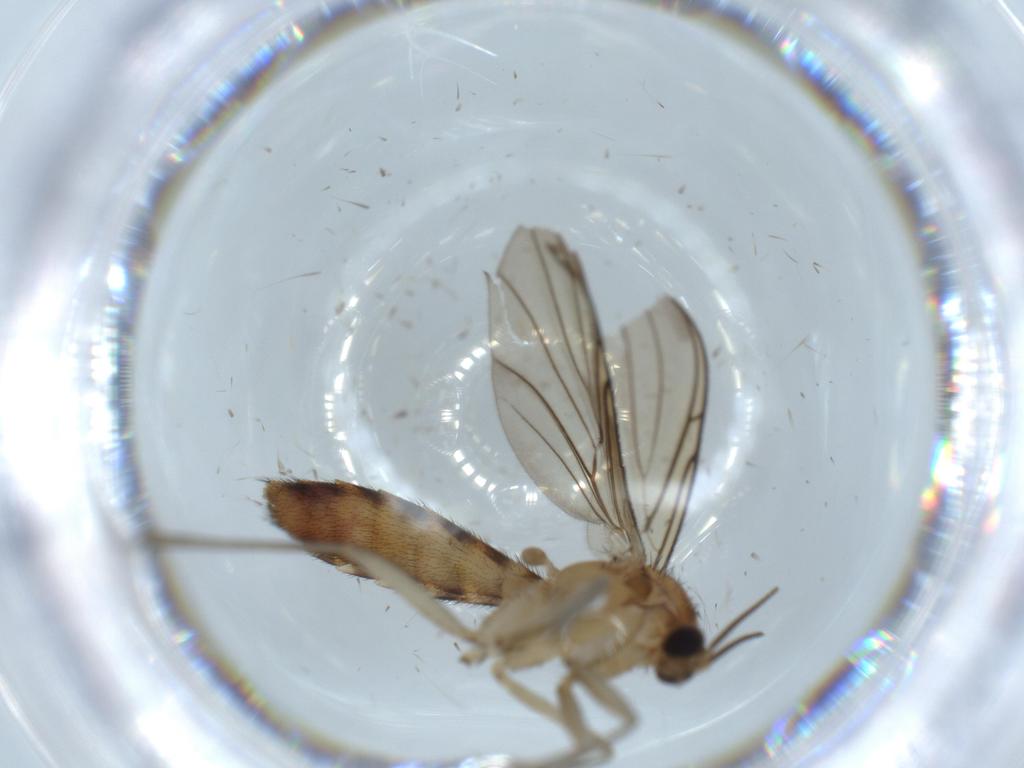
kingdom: Animalia
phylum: Arthropoda
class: Insecta
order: Diptera
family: Keroplatidae
